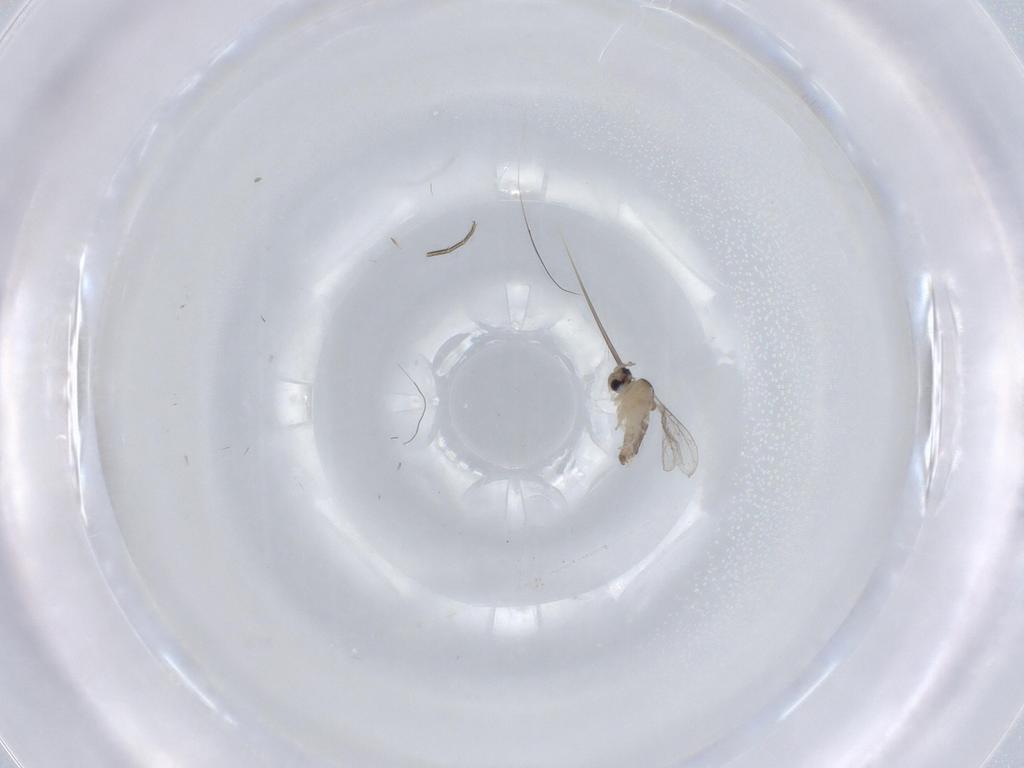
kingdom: Animalia
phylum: Arthropoda
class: Insecta
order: Diptera
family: Cecidomyiidae
